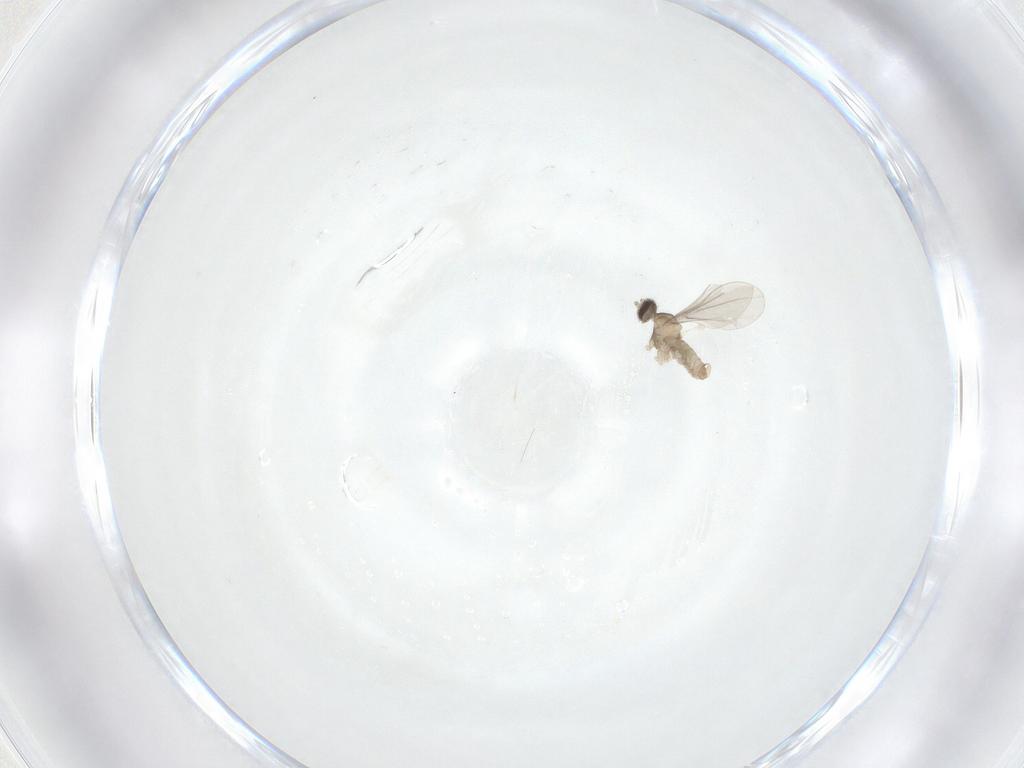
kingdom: Animalia
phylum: Arthropoda
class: Insecta
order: Diptera
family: Cecidomyiidae
